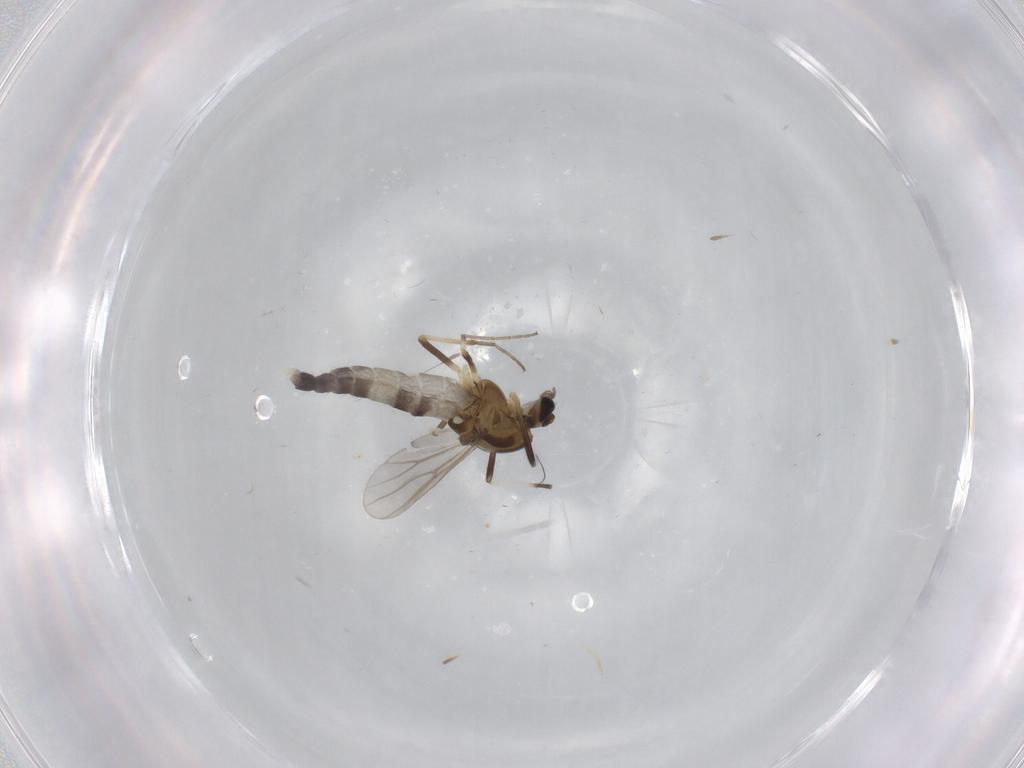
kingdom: Animalia
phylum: Arthropoda
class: Insecta
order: Diptera
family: Chironomidae
